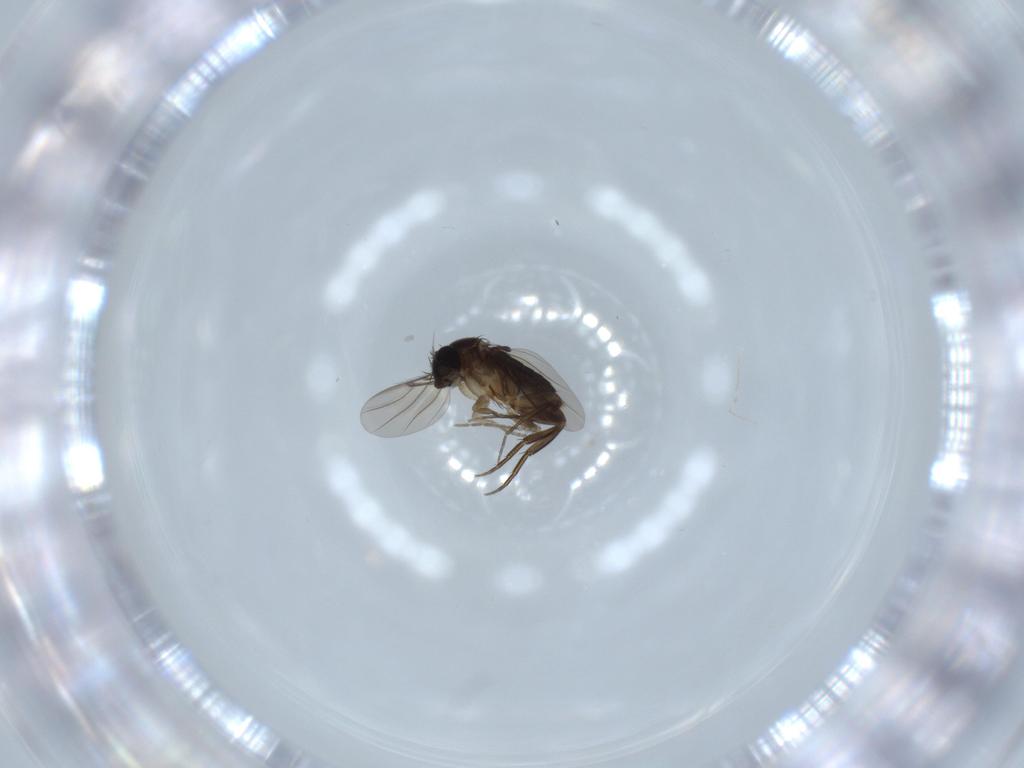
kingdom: Animalia
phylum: Arthropoda
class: Insecta
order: Diptera
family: Phoridae
